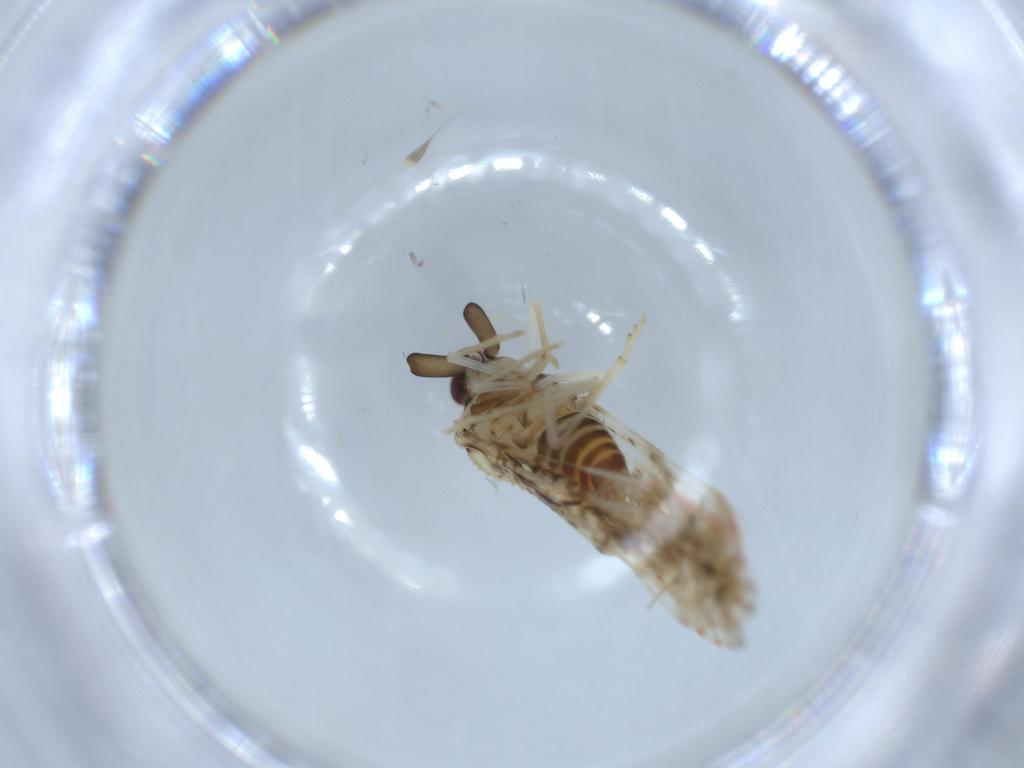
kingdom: Animalia
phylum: Arthropoda
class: Insecta
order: Hemiptera
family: Derbidae
